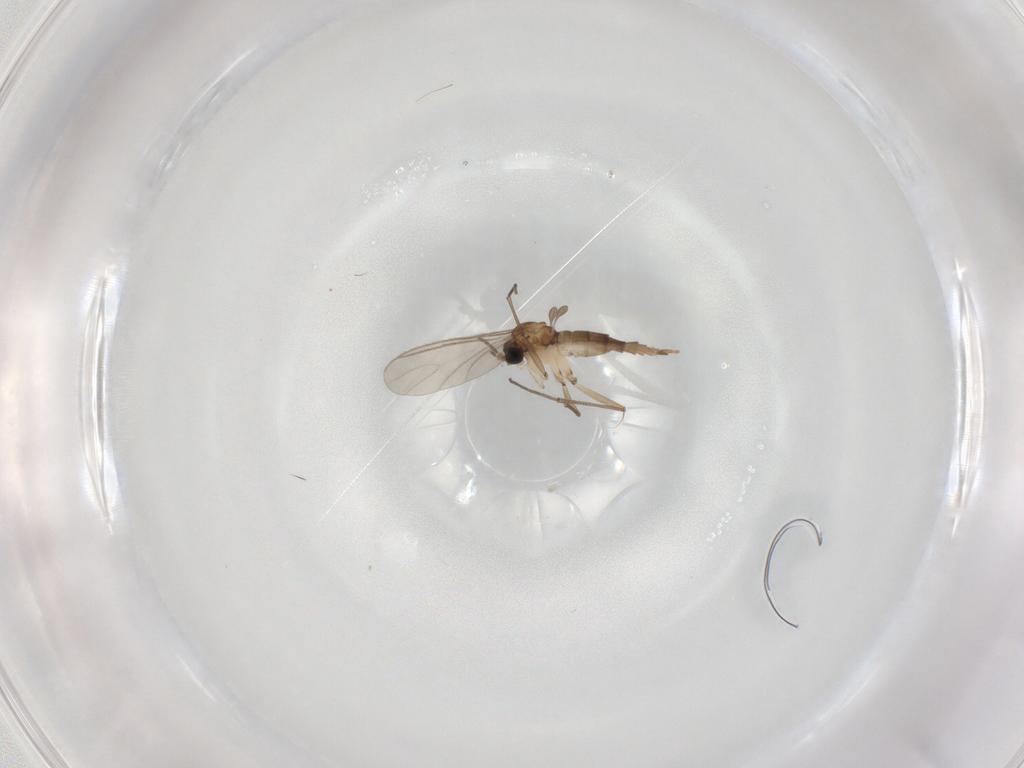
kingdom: Animalia
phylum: Arthropoda
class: Insecta
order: Diptera
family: Sciaridae
